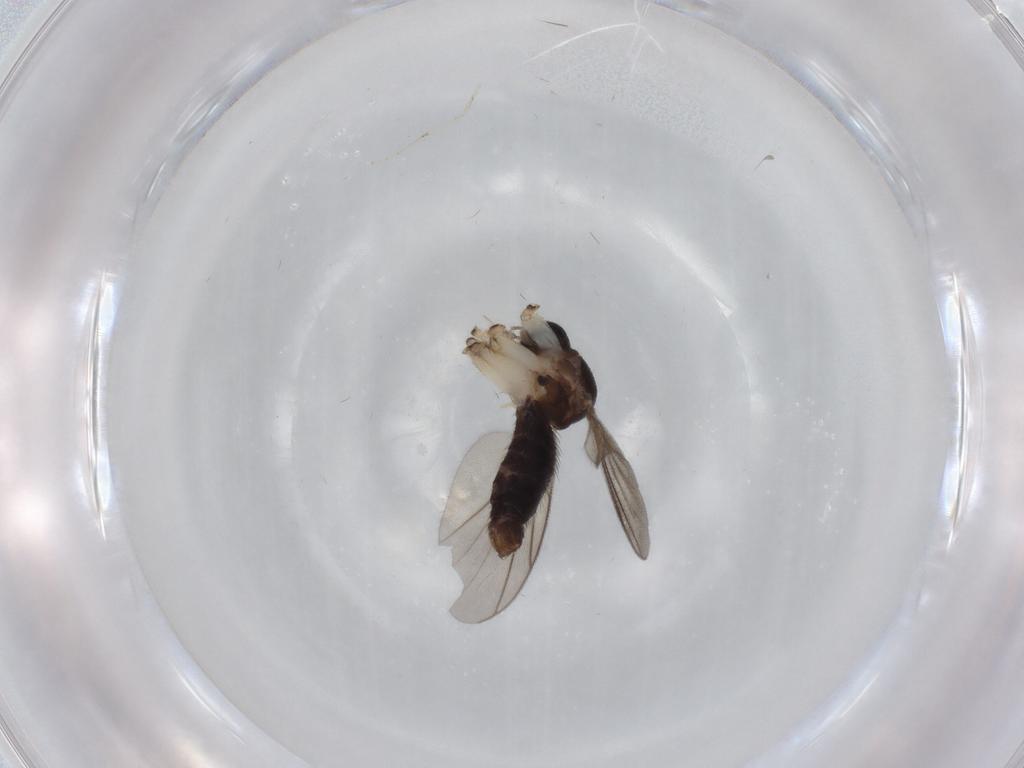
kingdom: Animalia
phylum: Arthropoda
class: Insecta
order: Diptera
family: Mycetophilidae
